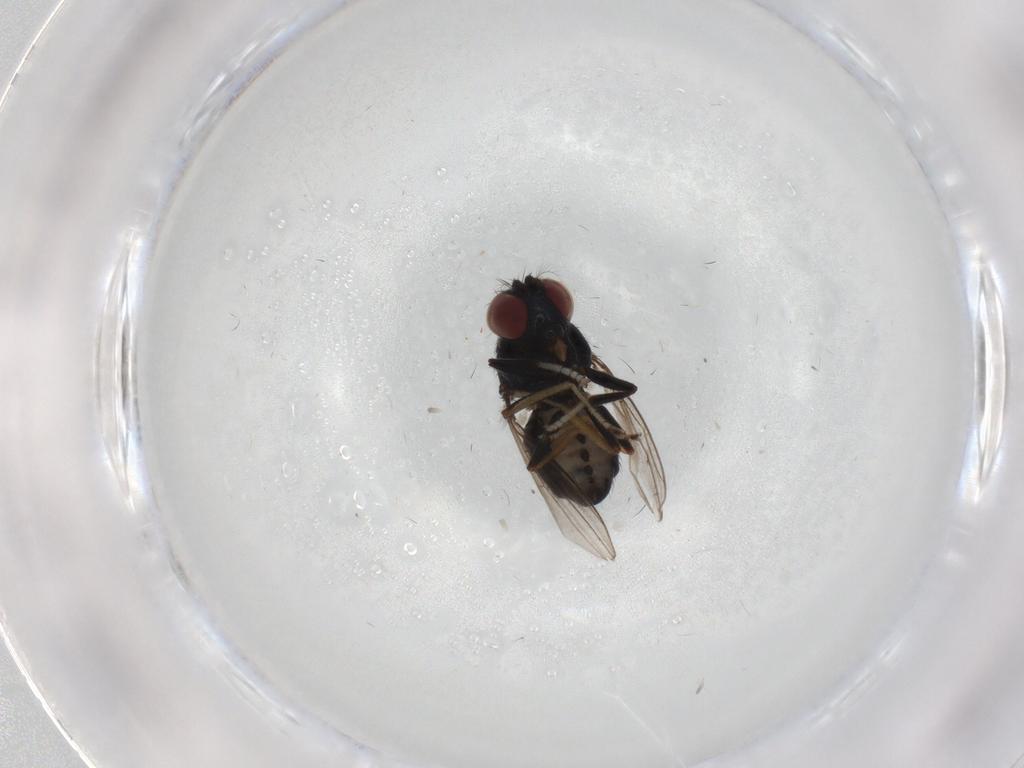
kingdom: Animalia
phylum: Arthropoda
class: Insecta
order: Diptera
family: Ephydridae
